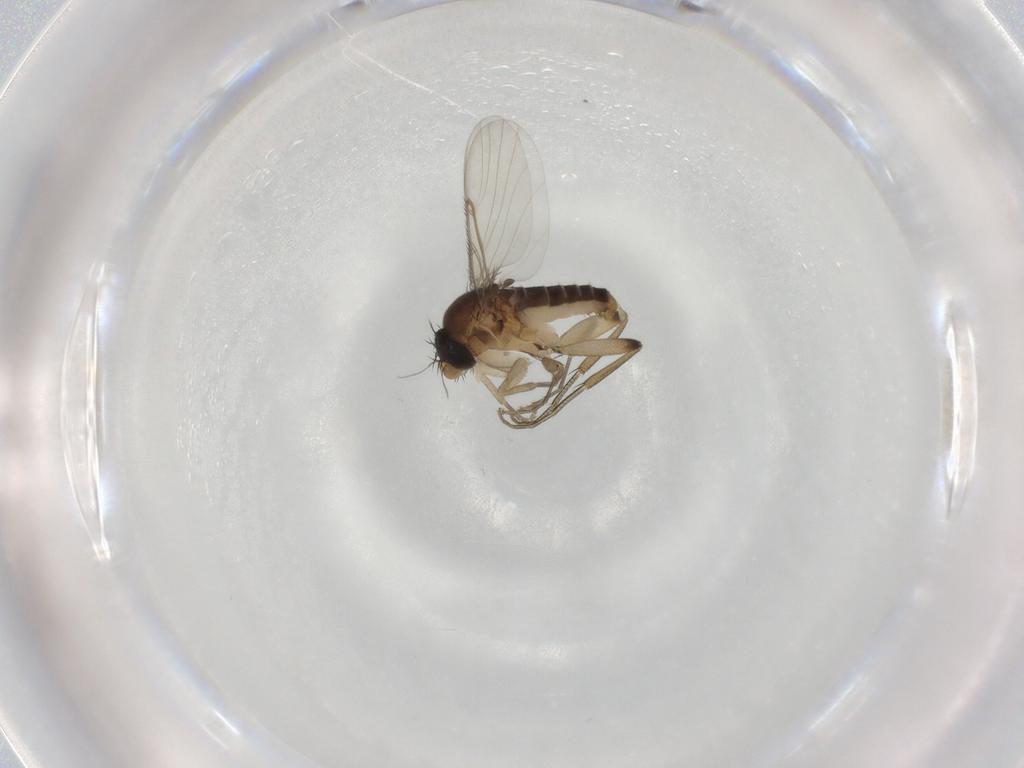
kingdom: Animalia
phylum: Arthropoda
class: Insecta
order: Diptera
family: Phoridae
